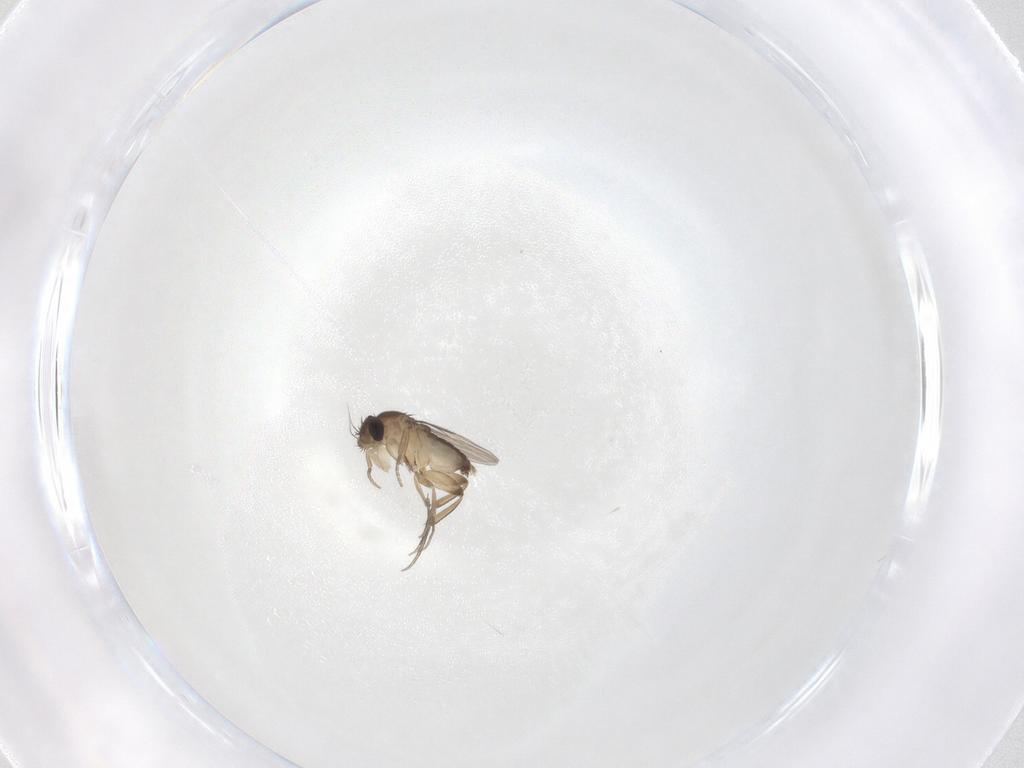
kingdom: Animalia
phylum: Arthropoda
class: Insecta
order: Diptera
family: Phoridae
